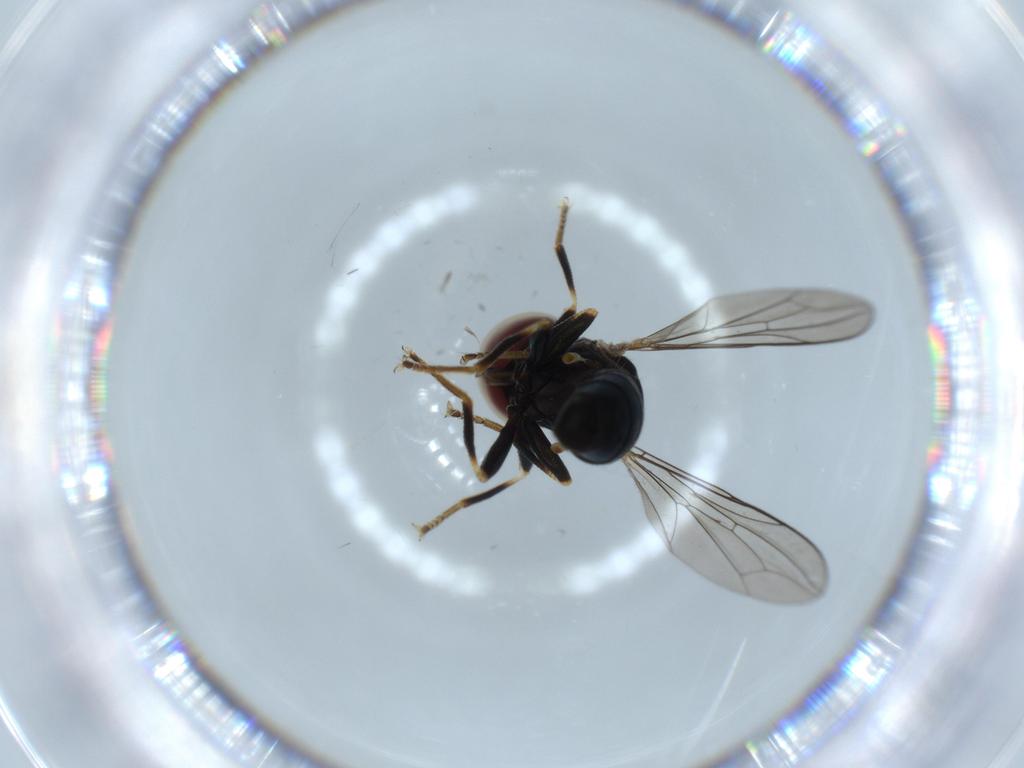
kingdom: Animalia
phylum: Arthropoda
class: Insecta
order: Diptera
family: Pipunculidae
